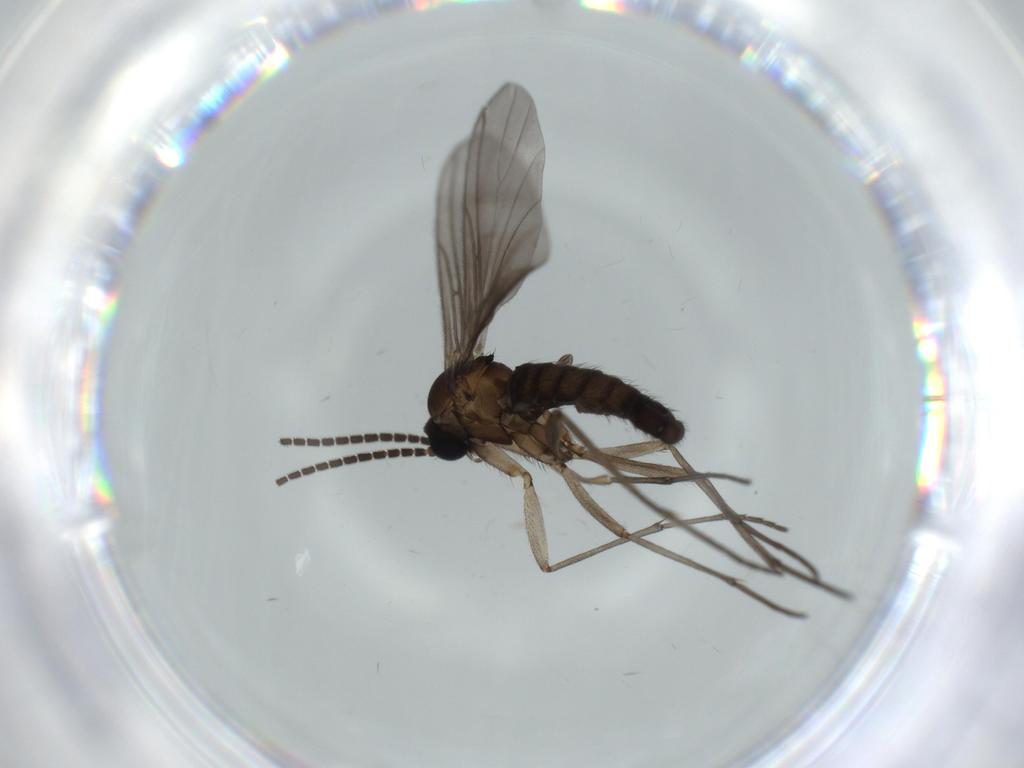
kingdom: Animalia
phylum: Arthropoda
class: Insecta
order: Diptera
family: Sciaridae
